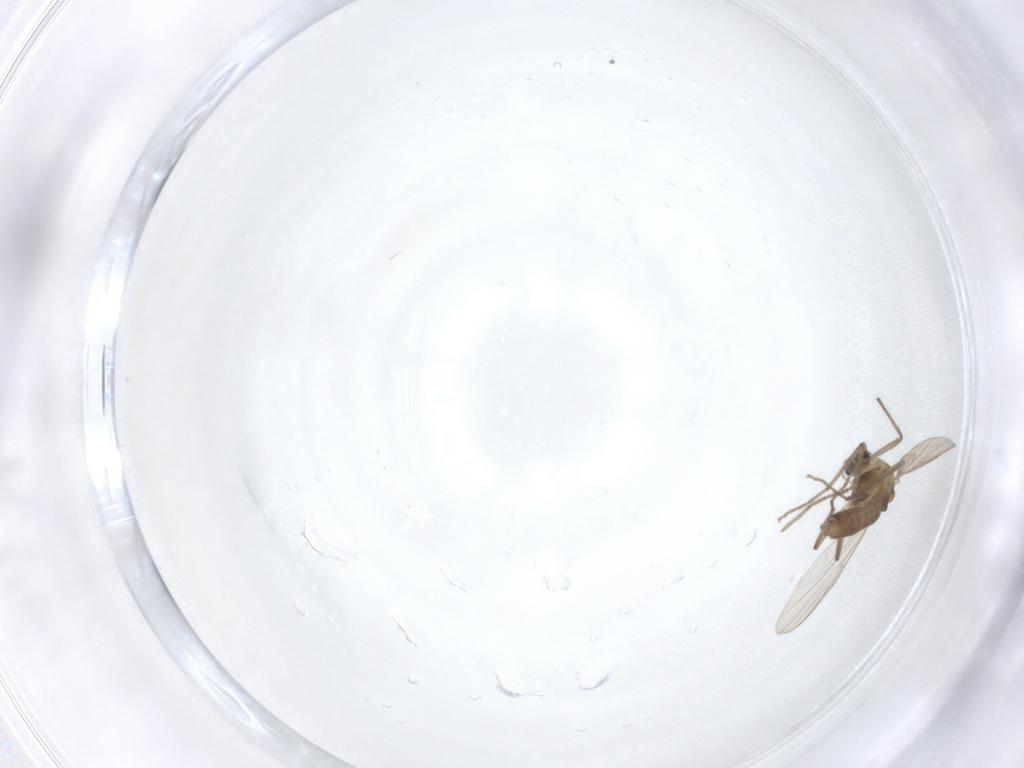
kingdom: Animalia
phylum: Arthropoda
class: Insecta
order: Diptera
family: Chironomidae
